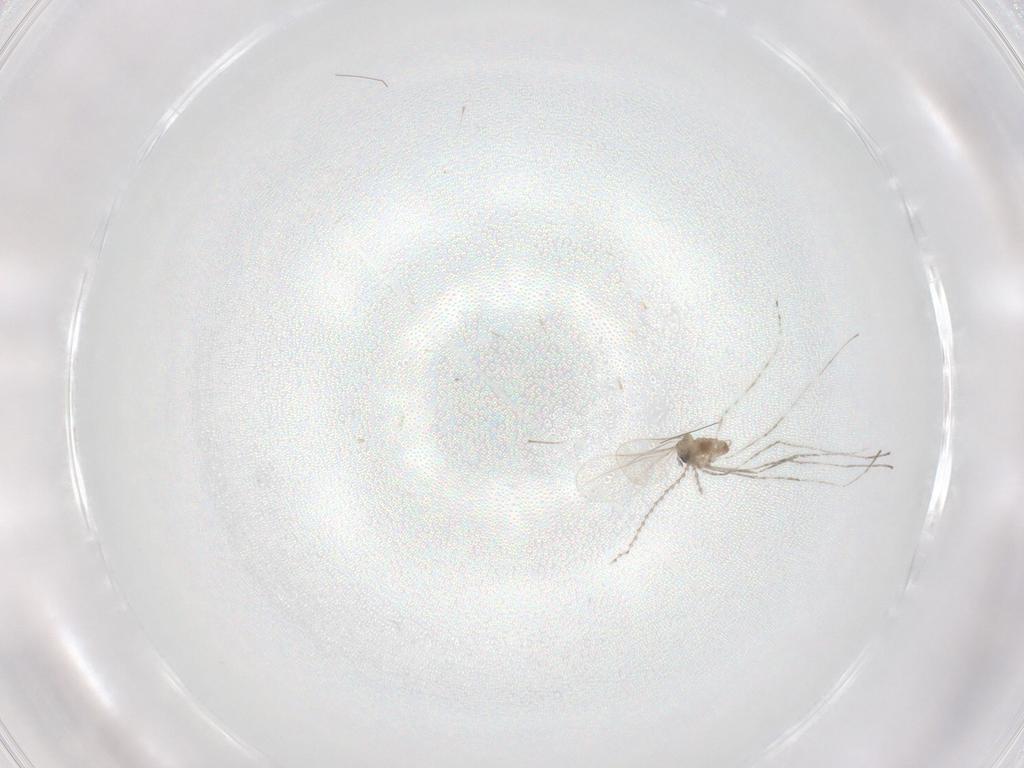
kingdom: Animalia
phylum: Arthropoda
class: Insecta
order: Diptera
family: Cecidomyiidae
